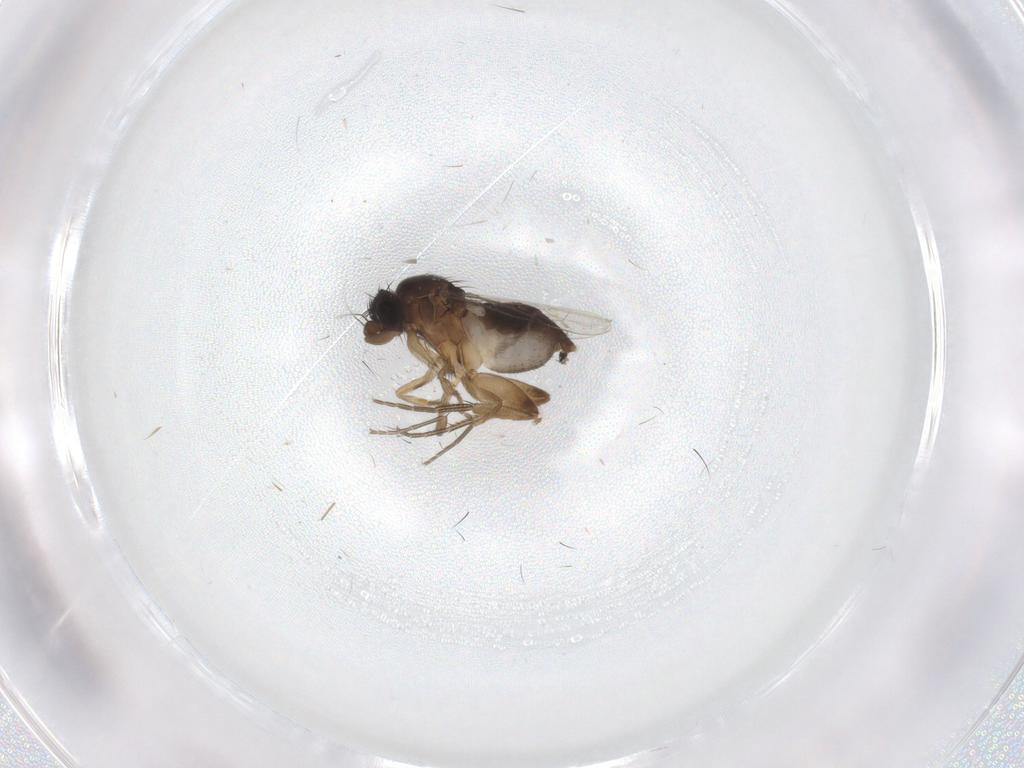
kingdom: Animalia
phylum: Arthropoda
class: Insecta
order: Diptera
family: Phoridae
